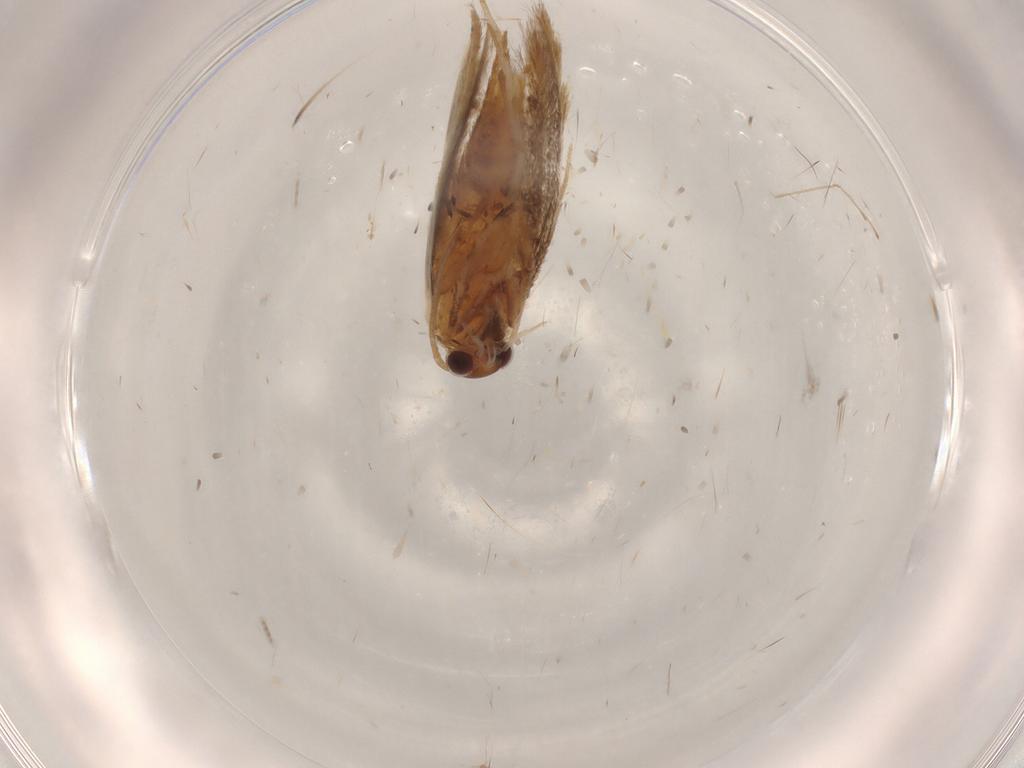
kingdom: Animalia
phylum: Arthropoda
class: Insecta
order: Lepidoptera
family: Elachistidae
